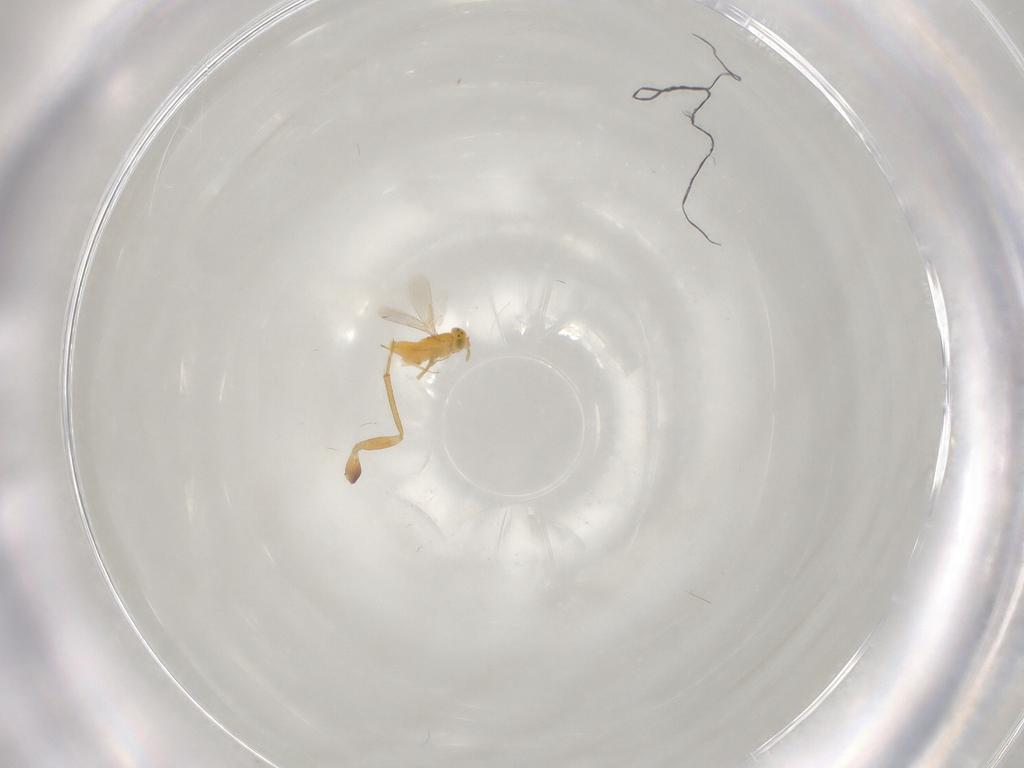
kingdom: Animalia
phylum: Arthropoda
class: Insecta
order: Hymenoptera
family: Aphelinidae
